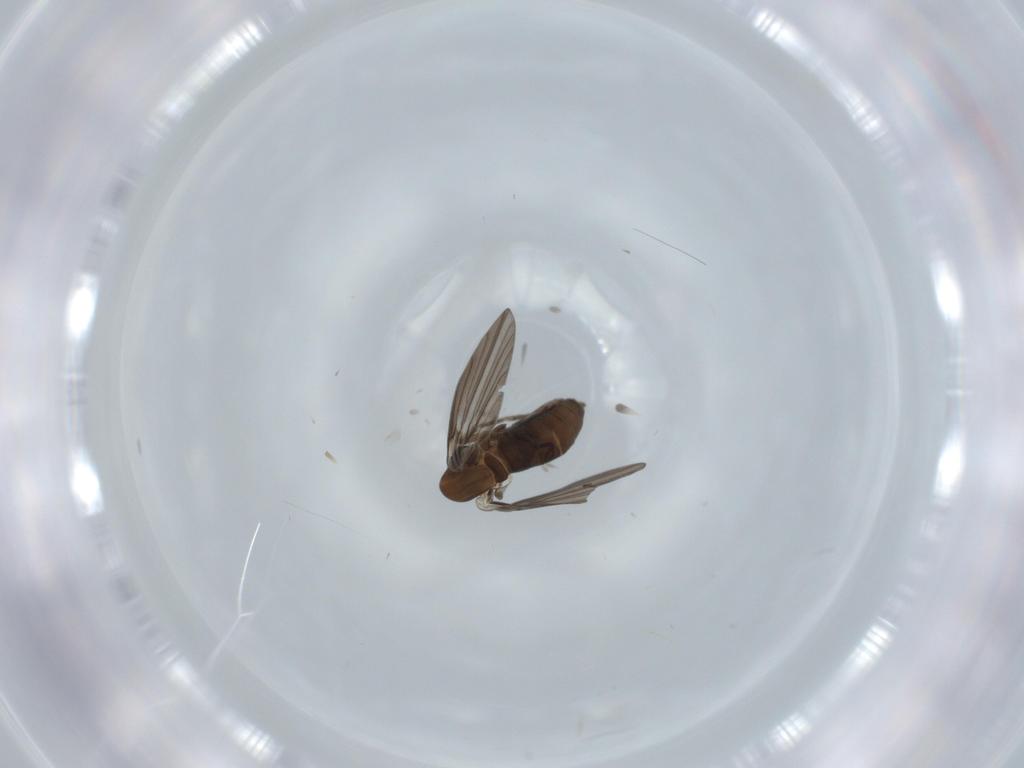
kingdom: Animalia
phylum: Arthropoda
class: Insecta
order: Diptera
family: Psychodidae
